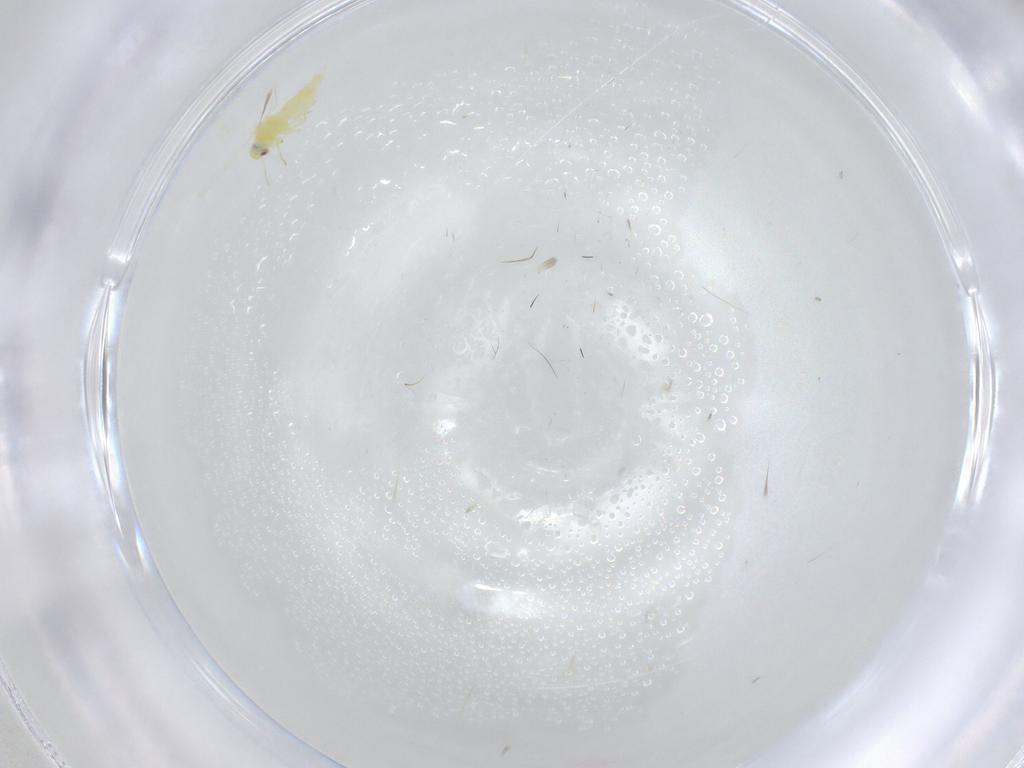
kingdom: Animalia
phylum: Arthropoda
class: Insecta
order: Hemiptera
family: Aleyrodidae
